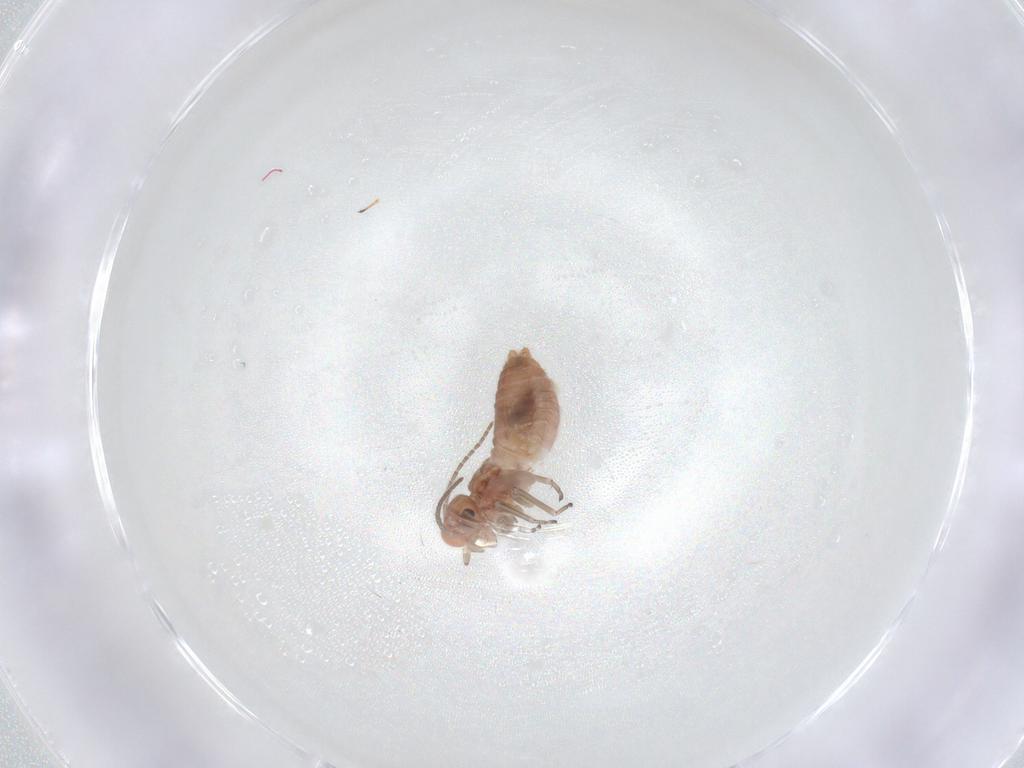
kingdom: Animalia
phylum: Arthropoda
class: Insecta
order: Psocodea
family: Caeciliusidae
